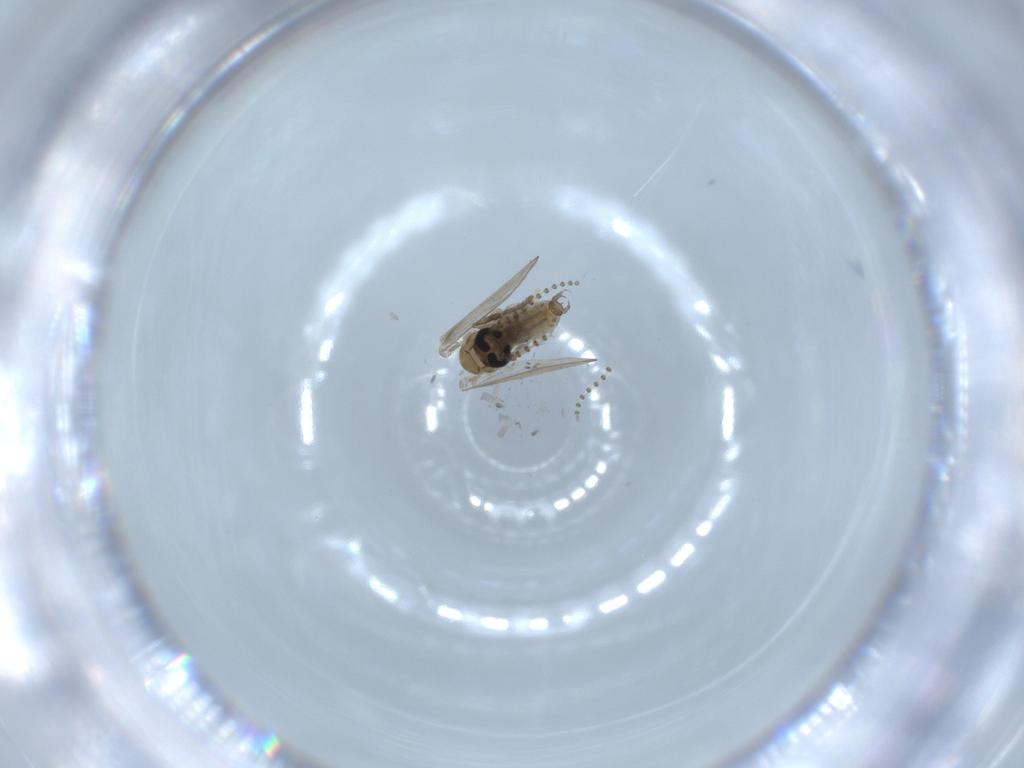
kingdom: Animalia
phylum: Arthropoda
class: Insecta
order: Diptera
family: Psychodidae
